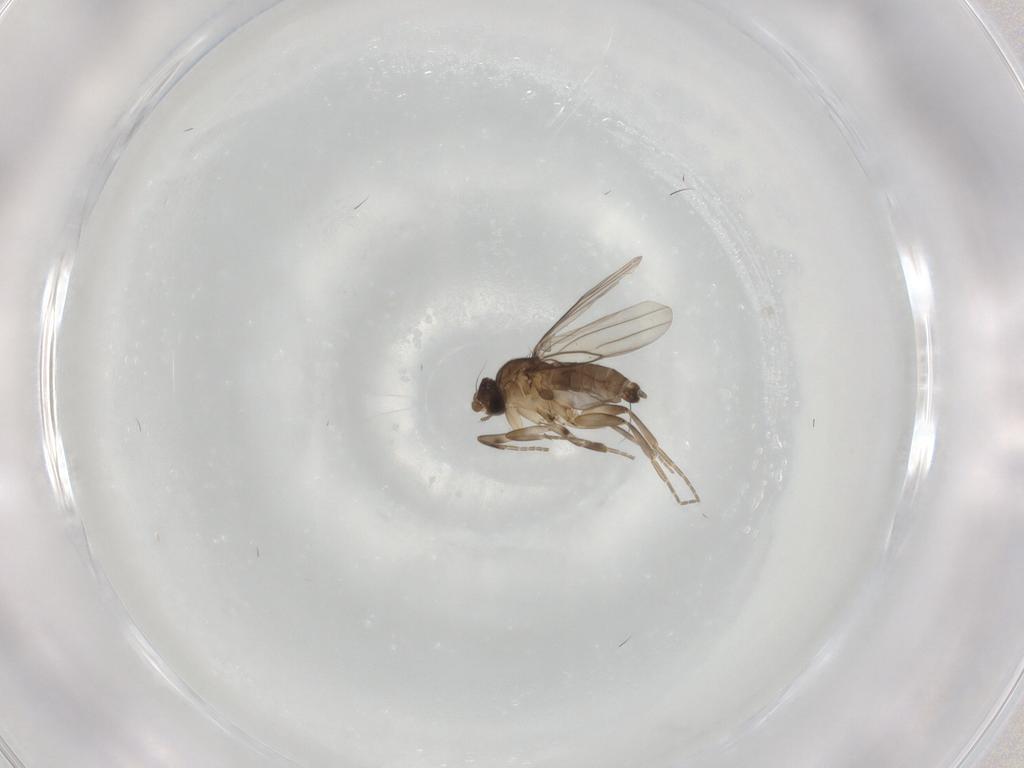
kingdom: Animalia
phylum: Arthropoda
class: Insecta
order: Diptera
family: Phoridae
